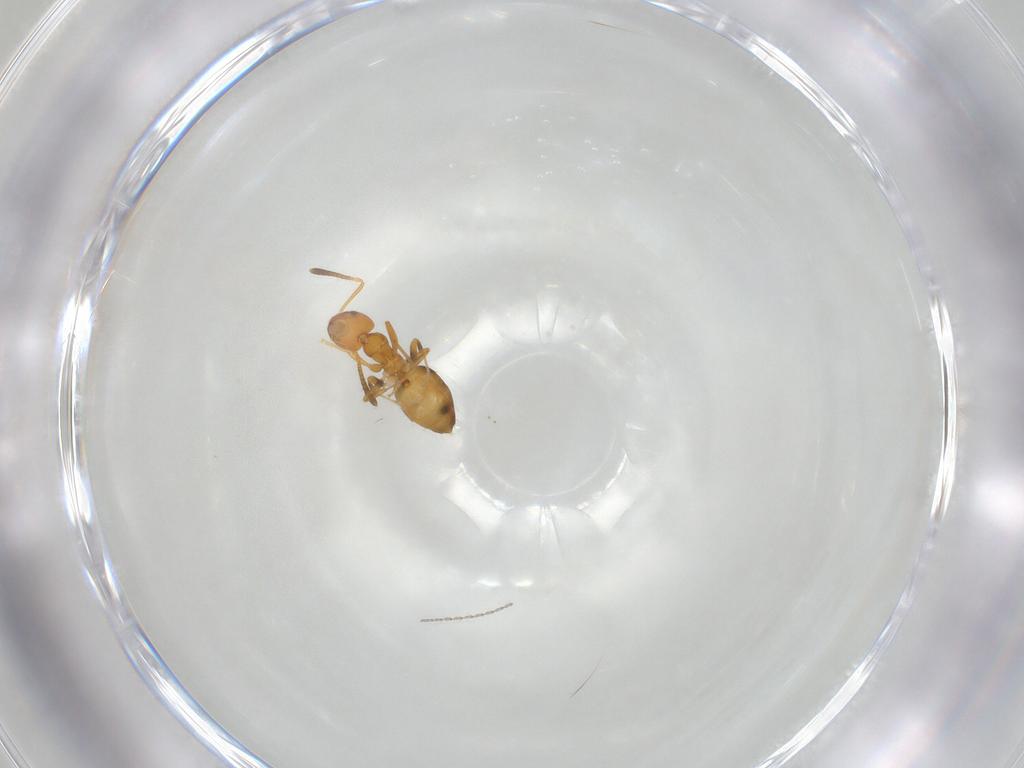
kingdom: Animalia
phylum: Arthropoda
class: Insecta
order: Hymenoptera
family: Formicidae
